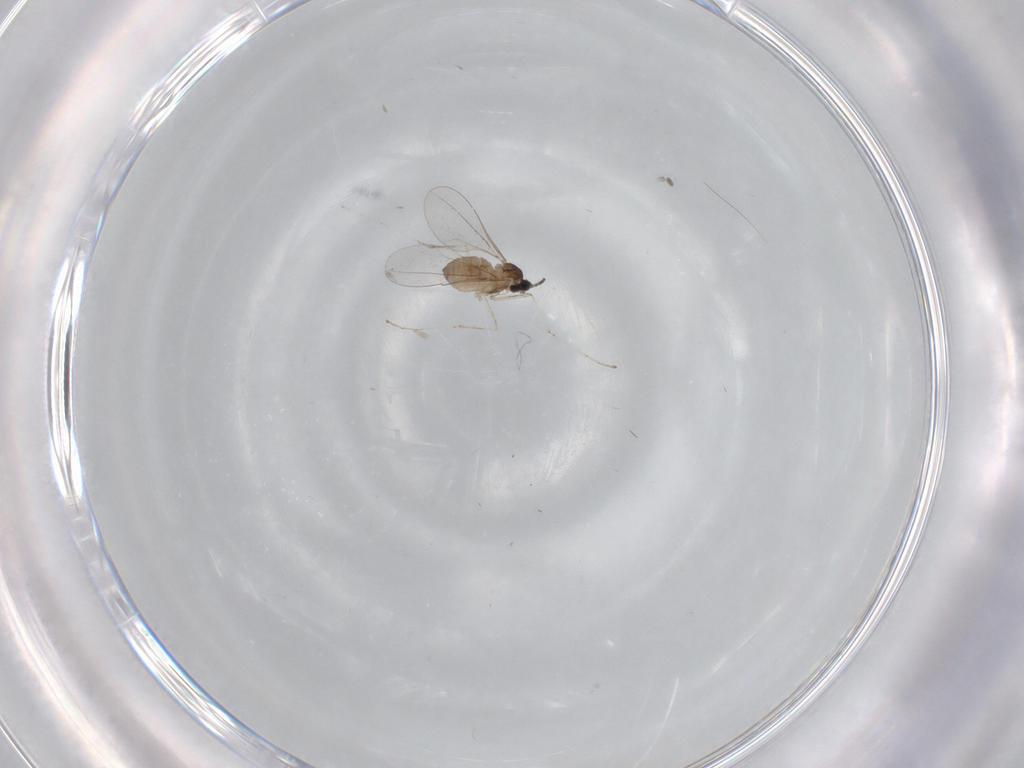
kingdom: Animalia
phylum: Arthropoda
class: Insecta
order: Diptera
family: Cecidomyiidae
